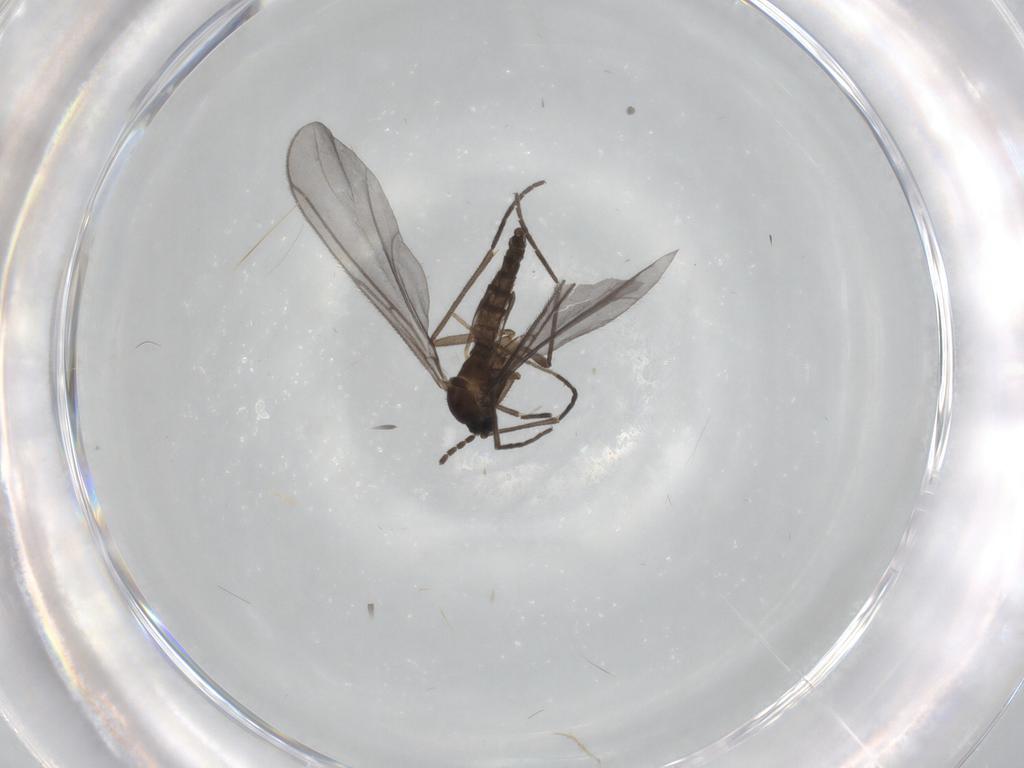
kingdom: Animalia
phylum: Arthropoda
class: Insecta
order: Diptera
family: Sciaridae
